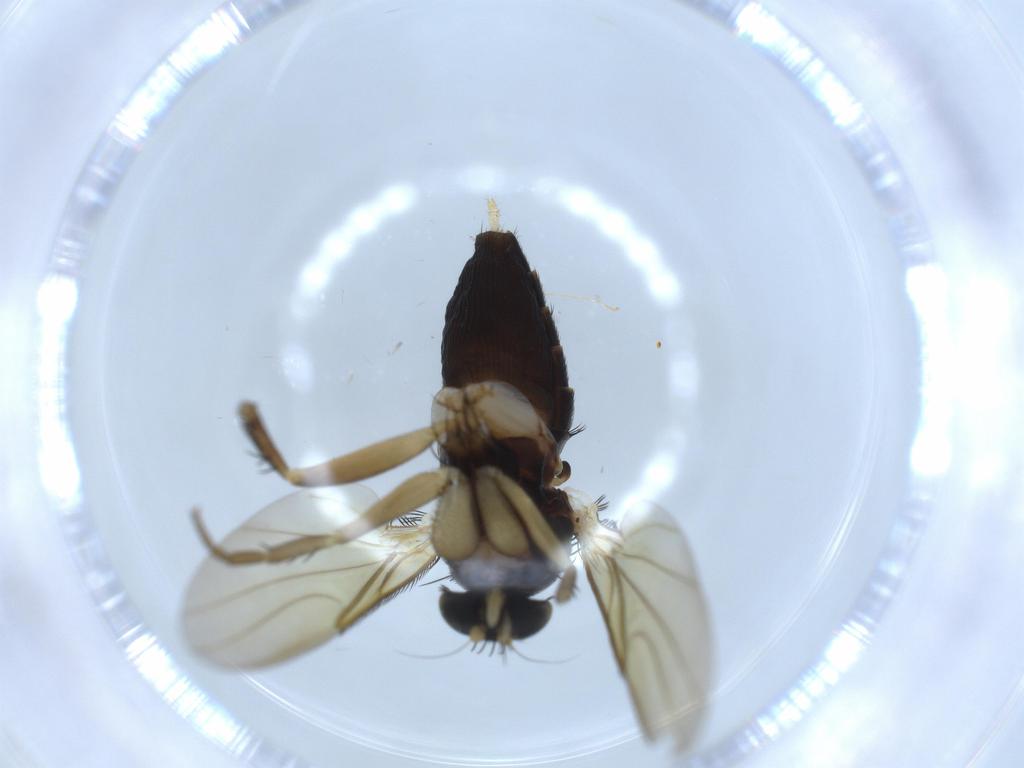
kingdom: Animalia
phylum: Arthropoda
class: Insecta
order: Diptera
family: Phoridae
